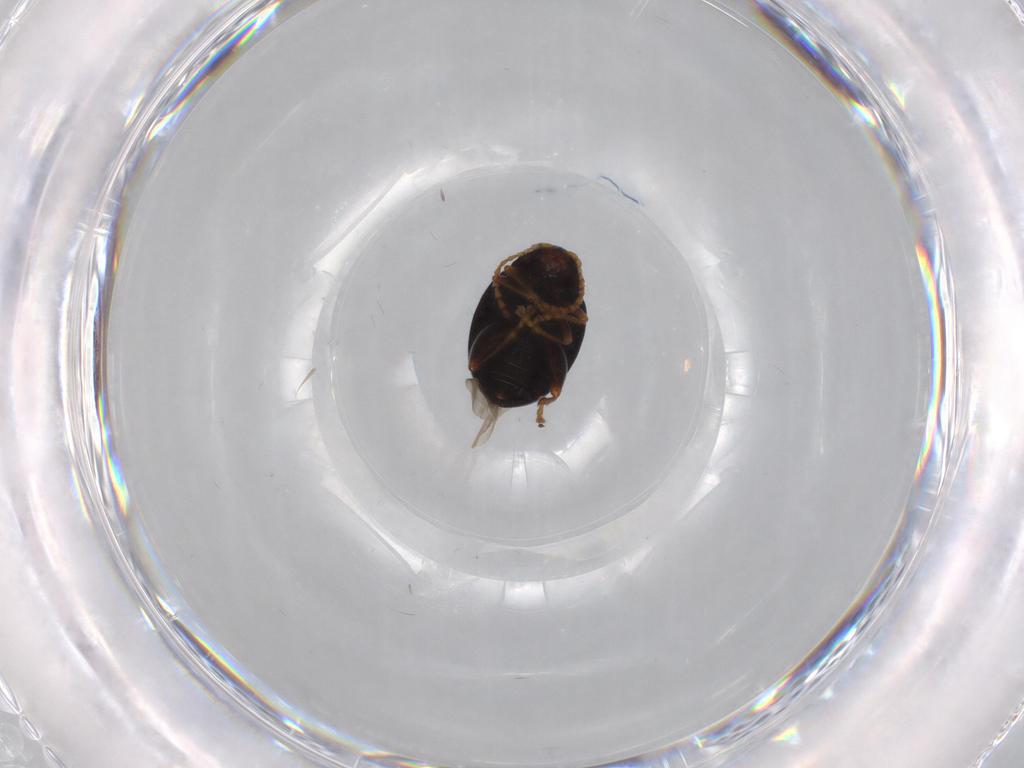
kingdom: Animalia
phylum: Arthropoda
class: Insecta
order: Coleoptera
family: Chrysomelidae
